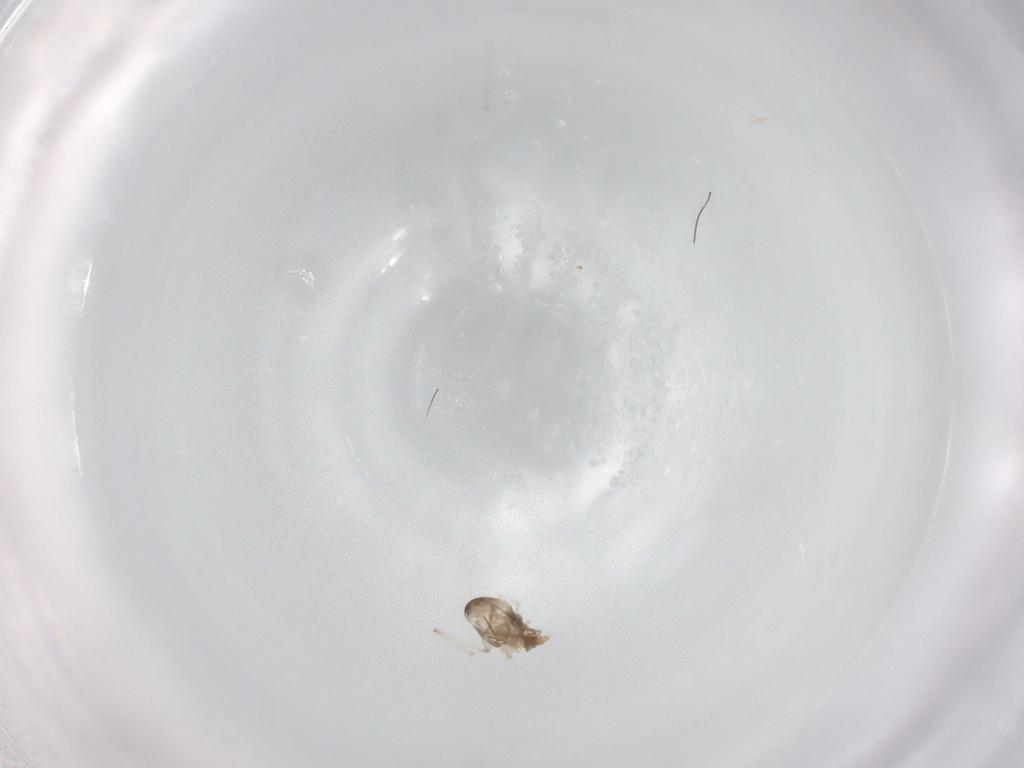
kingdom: Animalia
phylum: Arthropoda
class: Insecta
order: Diptera
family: Cecidomyiidae
